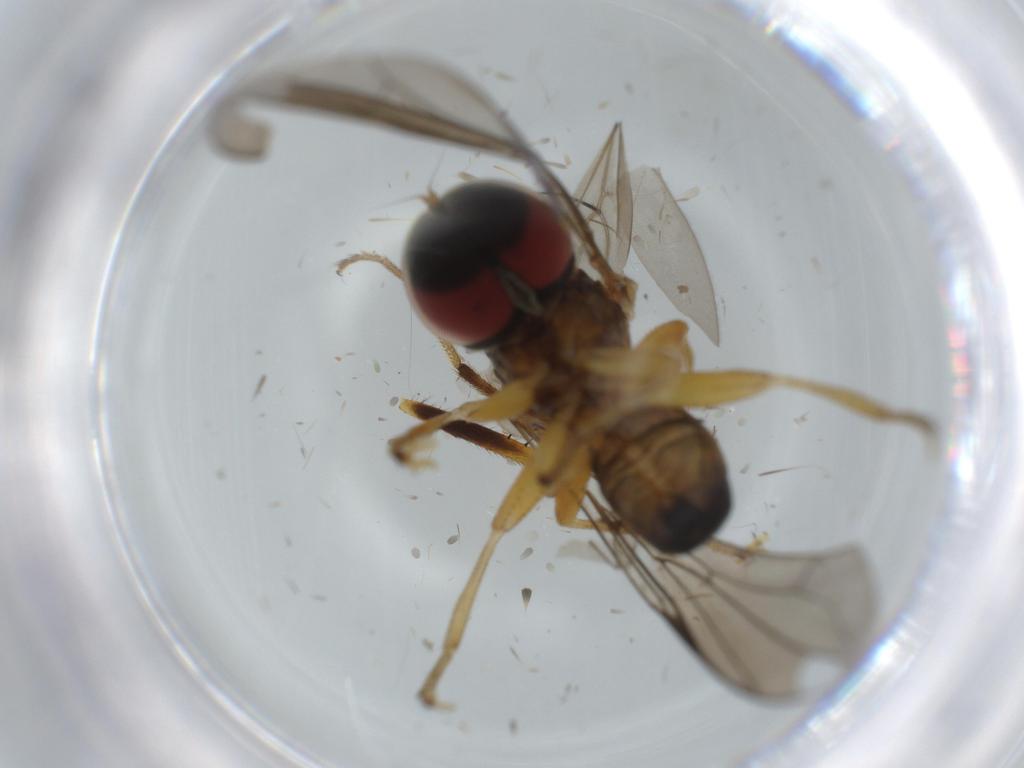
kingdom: Animalia
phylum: Arthropoda
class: Insecta
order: Diptera
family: Pipunculidae
